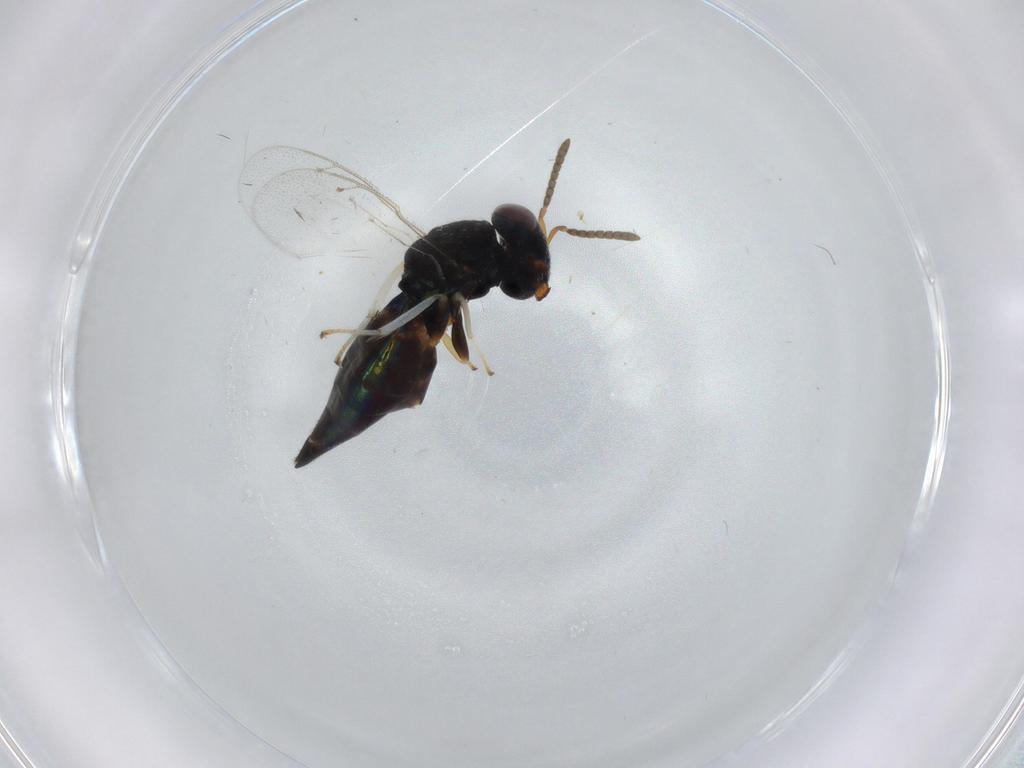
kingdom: Animalia
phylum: Arthropoda
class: Insecta
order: Hymenoptera
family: Pteromalidae
